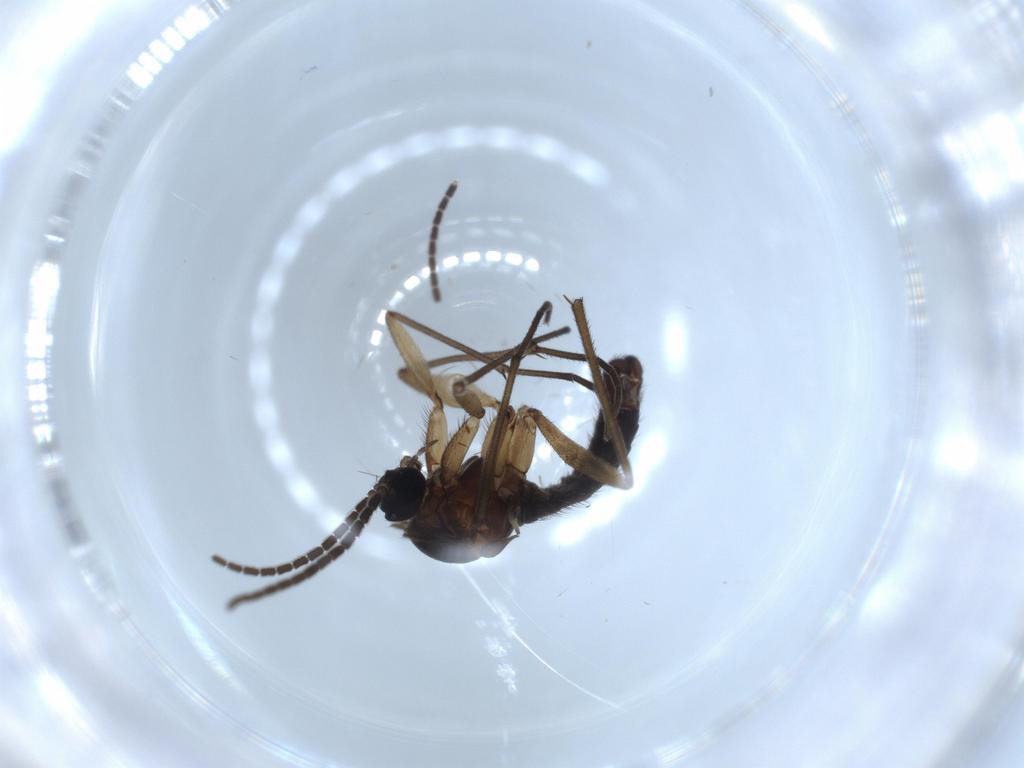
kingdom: Animalia
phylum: Arthropoda
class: Insecta
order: Diptera
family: Sciaridae
